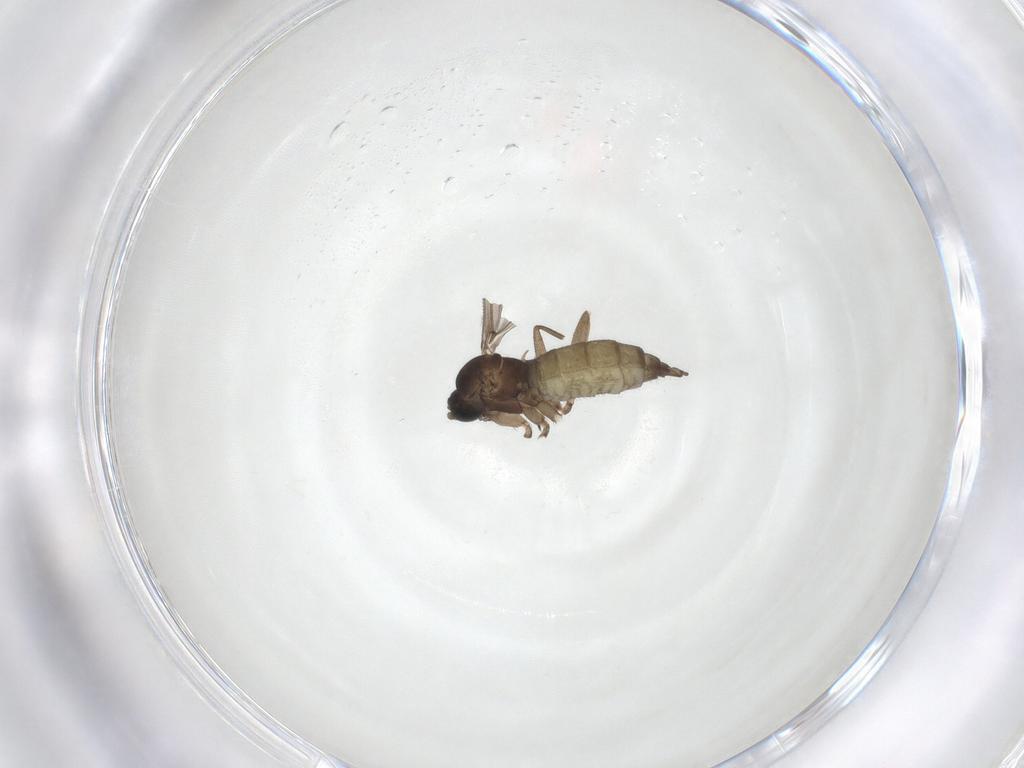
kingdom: Animalia
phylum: Arthropoda
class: Insecta
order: Diptera
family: Sciaridae
